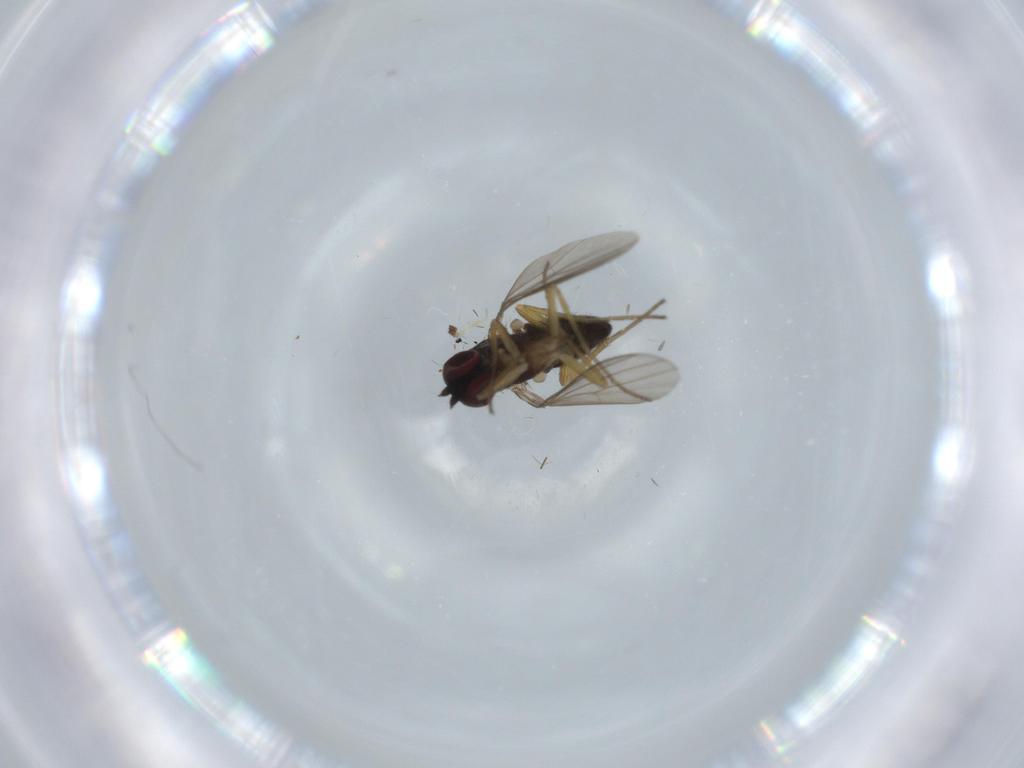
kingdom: Animalia
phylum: Arthropoda
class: Insecta
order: Diptera
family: Dolichopodidae
